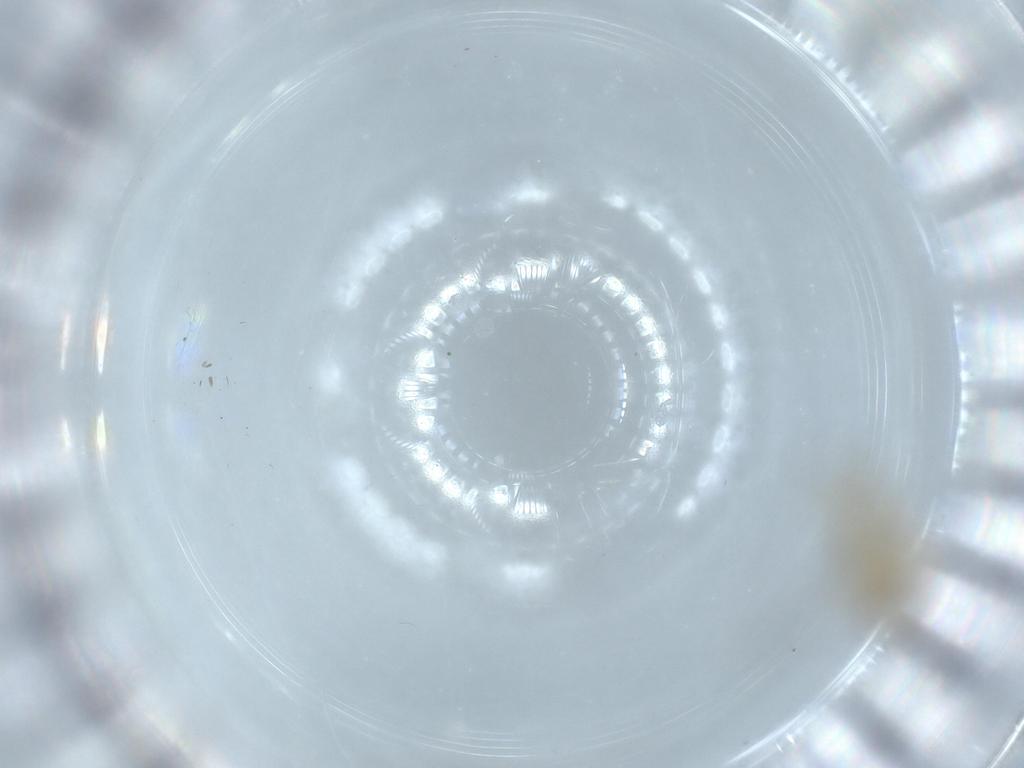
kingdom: Animalia
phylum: Arthropoda
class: Insecta
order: Diptera
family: Chironomidae
